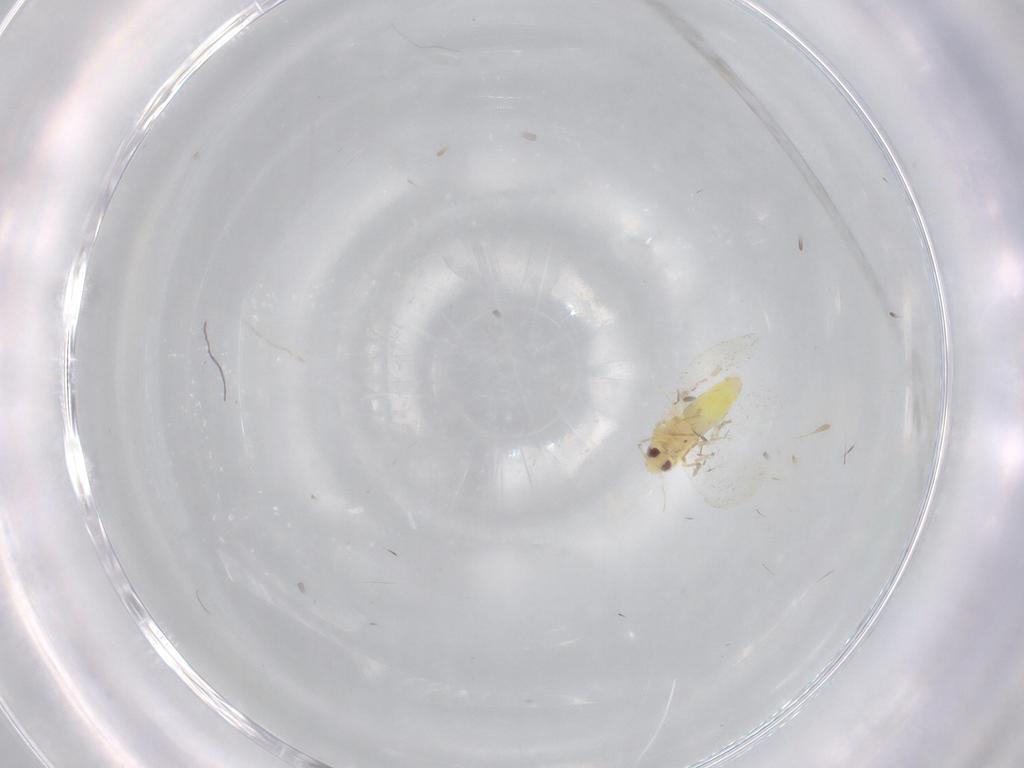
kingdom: Animalia
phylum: Arthropoda
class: Insecta
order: Hemiptera
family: Aleyrodidae
